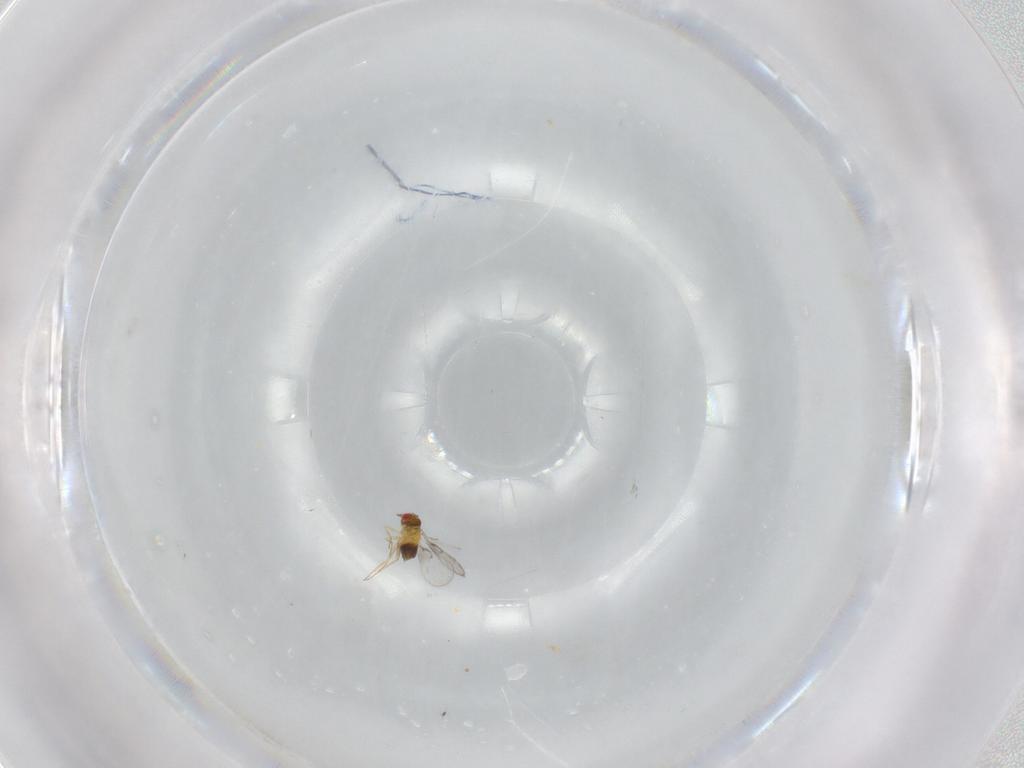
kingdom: Animalia
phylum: Arthropoda
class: Insecta
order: Hymenoptera
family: Trichogrammatidae
